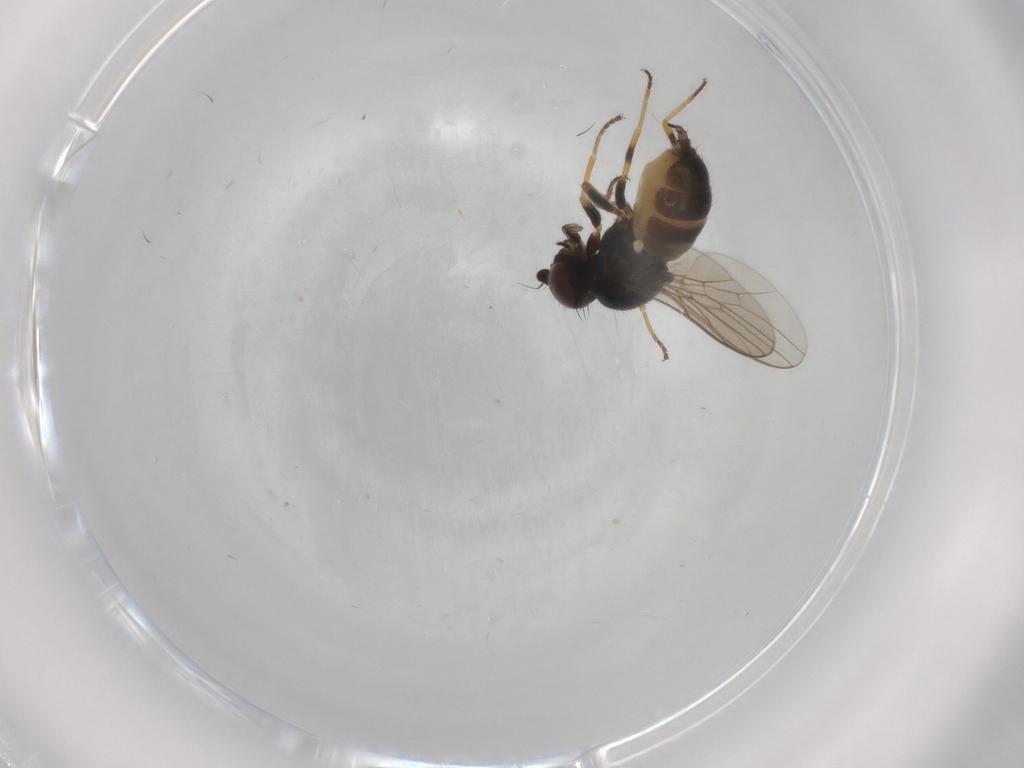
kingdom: Animalia
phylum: Arthropoda
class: Insecta
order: Diptera
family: Chloropidae
